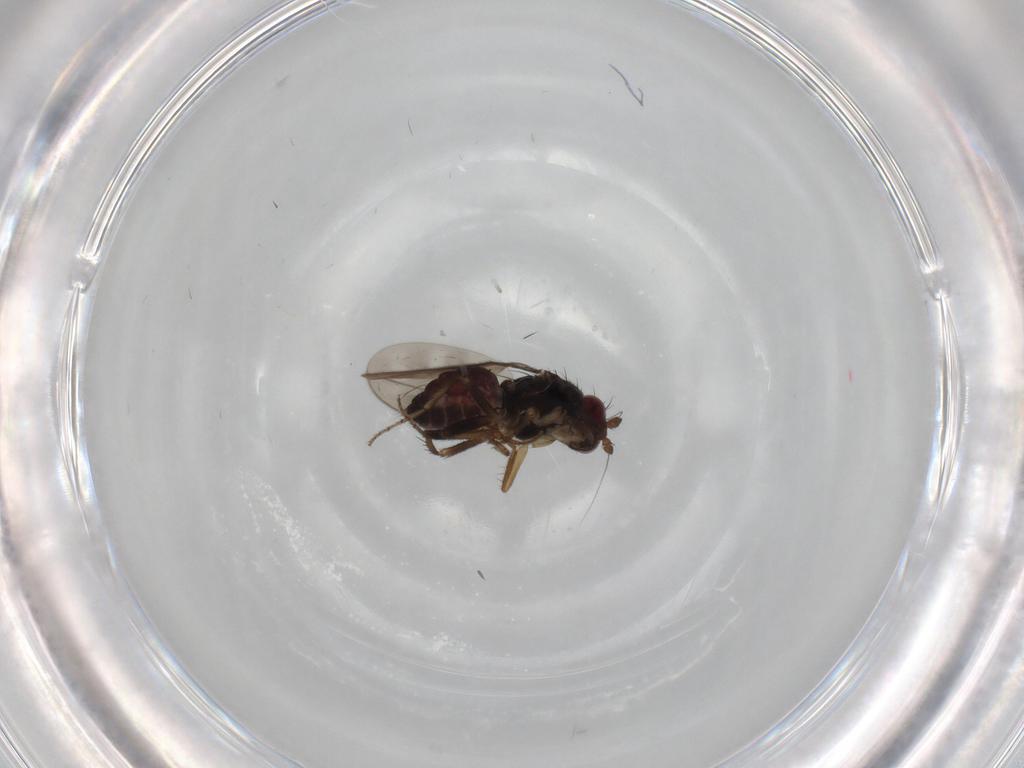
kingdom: Animalia
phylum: Arthropoda
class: Insecta
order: Diptera
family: Sphaeroceridae
